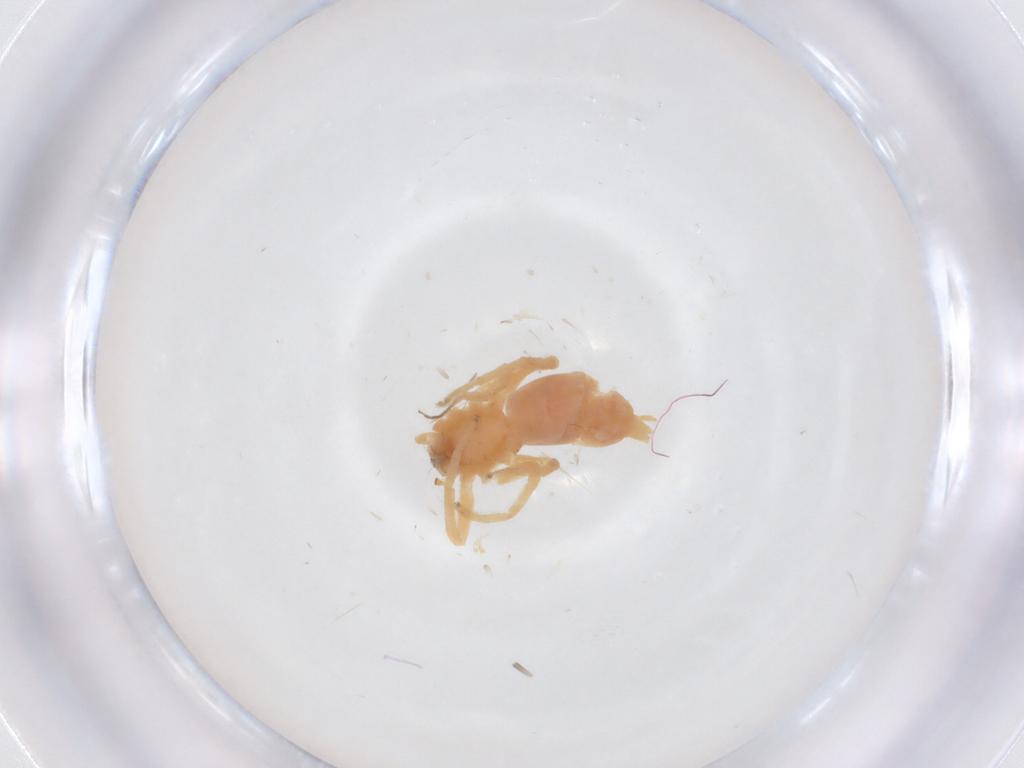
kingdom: Animalia
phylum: Arthropoda
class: Arachnida
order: Araneae
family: Anyphaenidae
